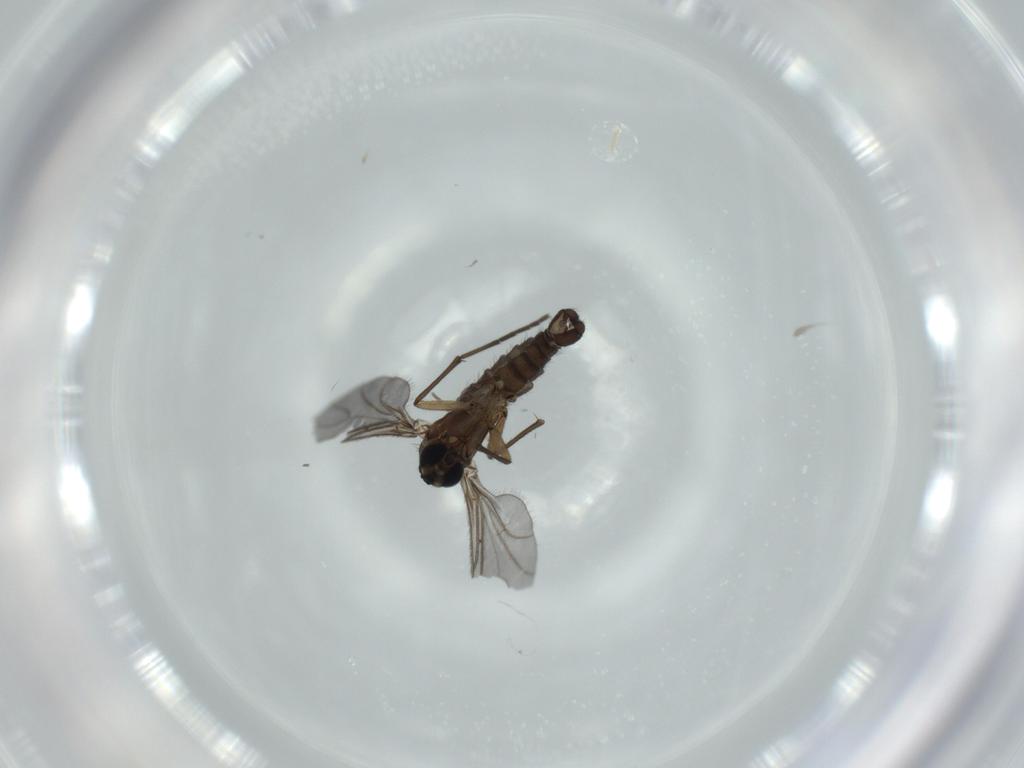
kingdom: Animalia
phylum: Arthropoda
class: Insecta
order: Diptera
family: Sciaridae
